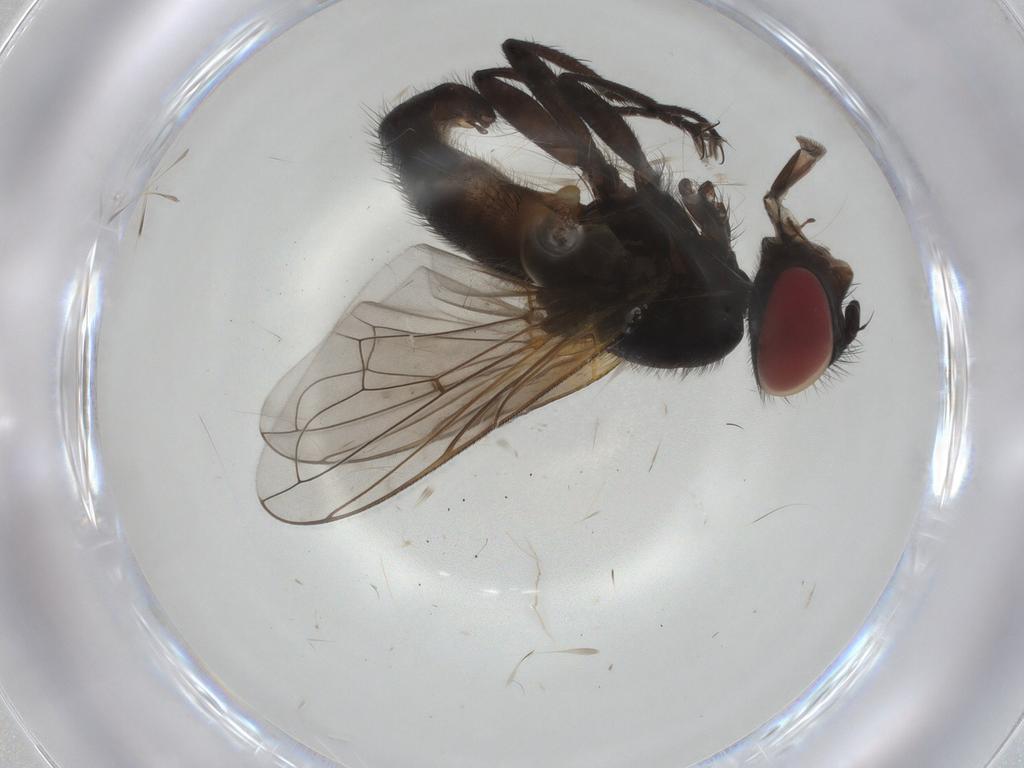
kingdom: Animalia
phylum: Arthropoda
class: Insecta
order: Diptera
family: Tachinidae
